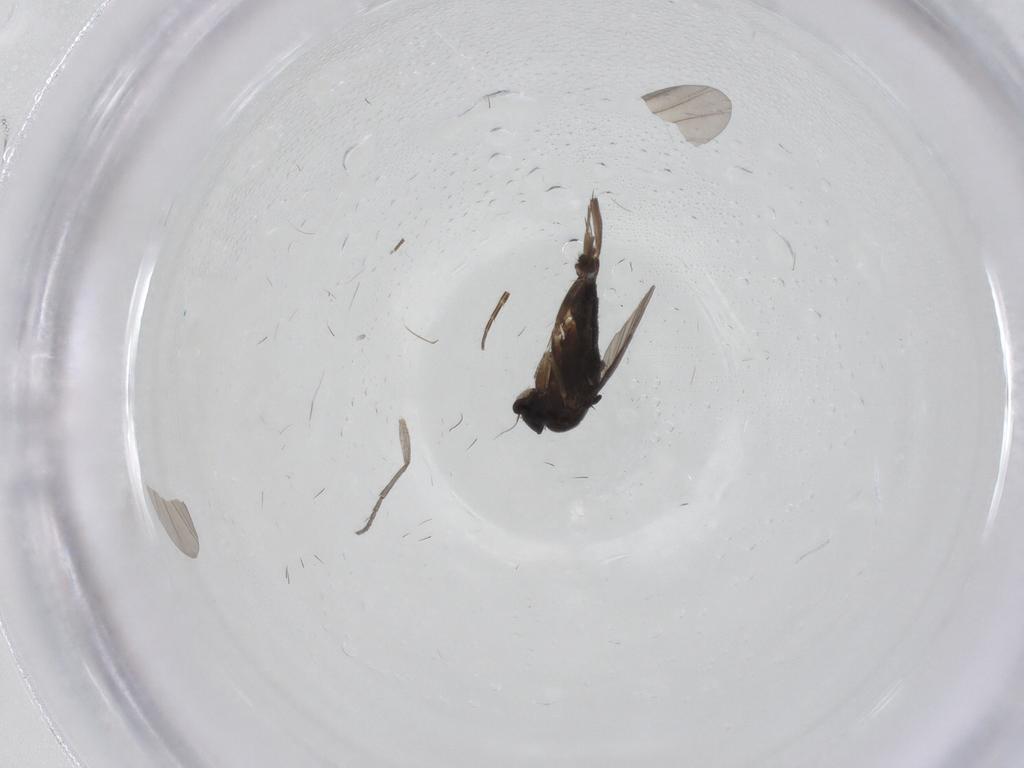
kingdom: Animalia
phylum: Arthropoda
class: Insecta
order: Diptera
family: Phoridae
